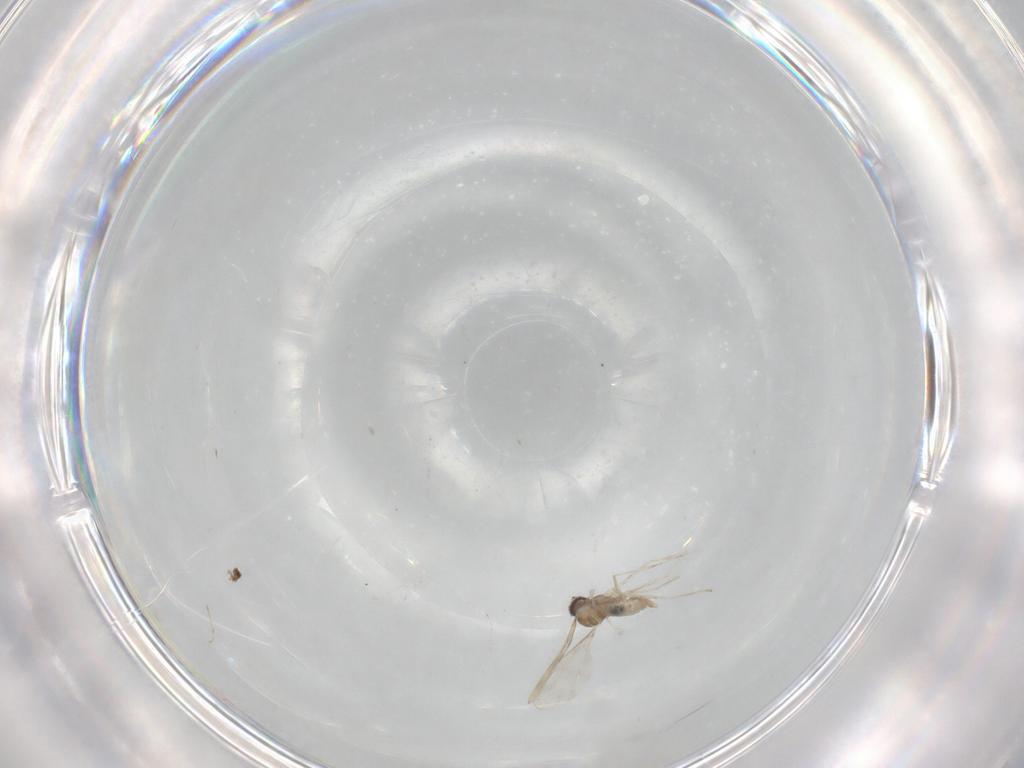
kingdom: Animalia
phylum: Arthropoda
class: Insecta
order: Diptera
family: Cecidomyiidae
